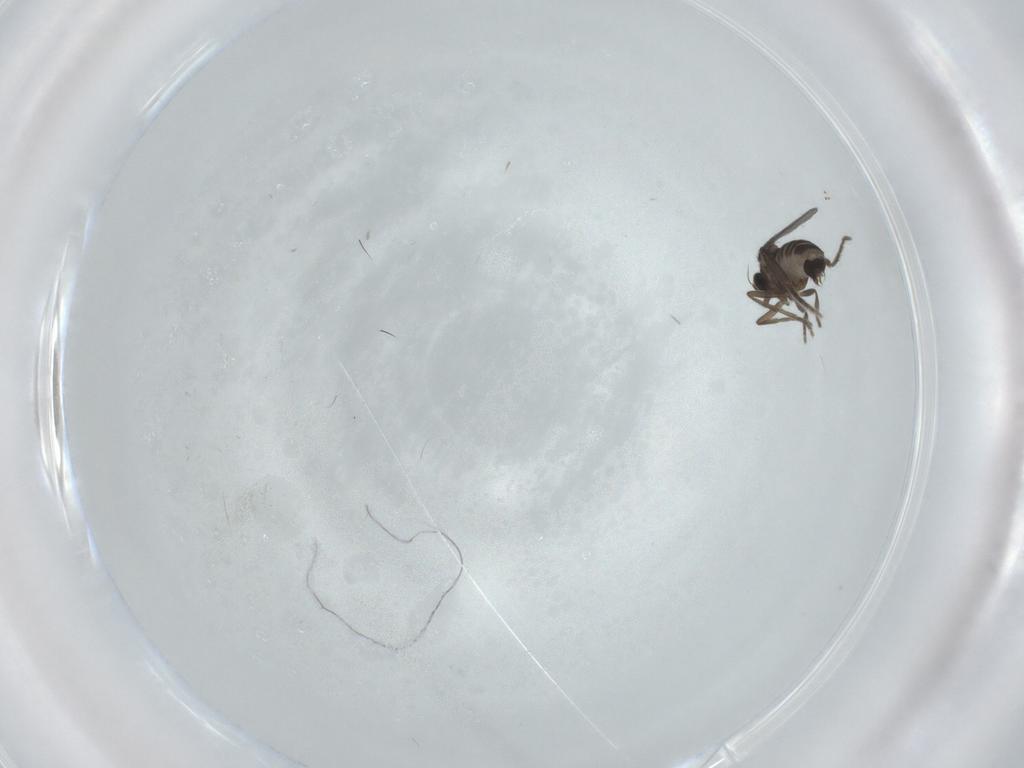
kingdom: Animalia
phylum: Arthropoda
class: Insecta
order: Diptera
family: Phoridae
